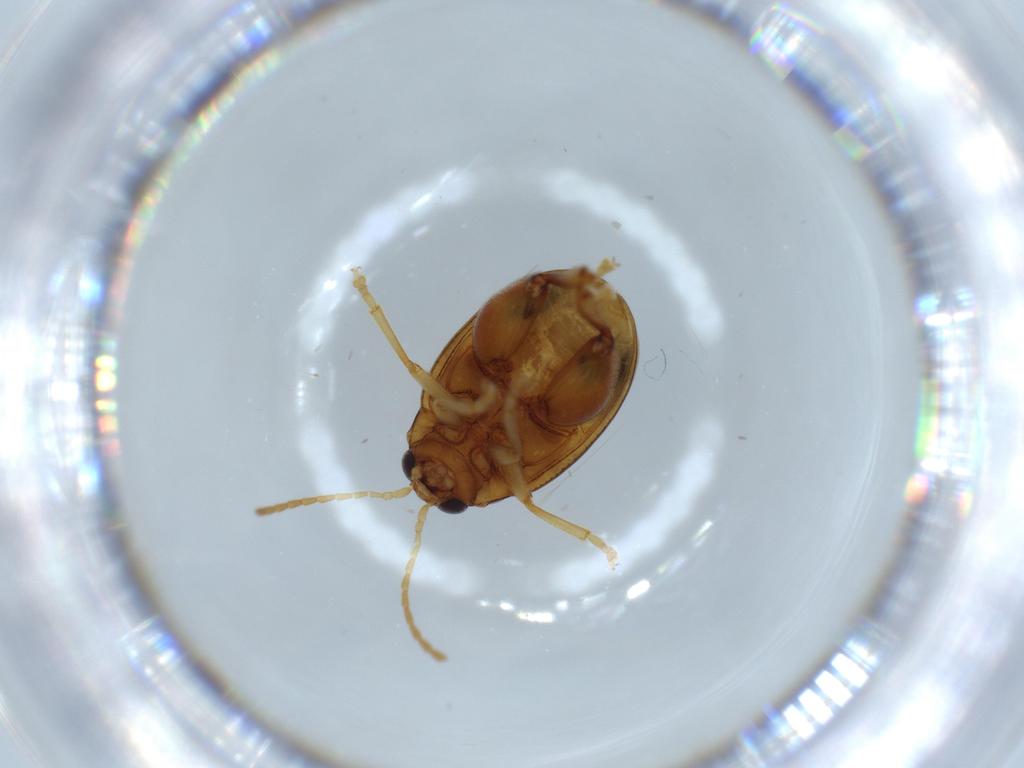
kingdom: Animalia
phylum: Arthropoda
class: Insecta
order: Coleoptera
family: Chrysomelidae
